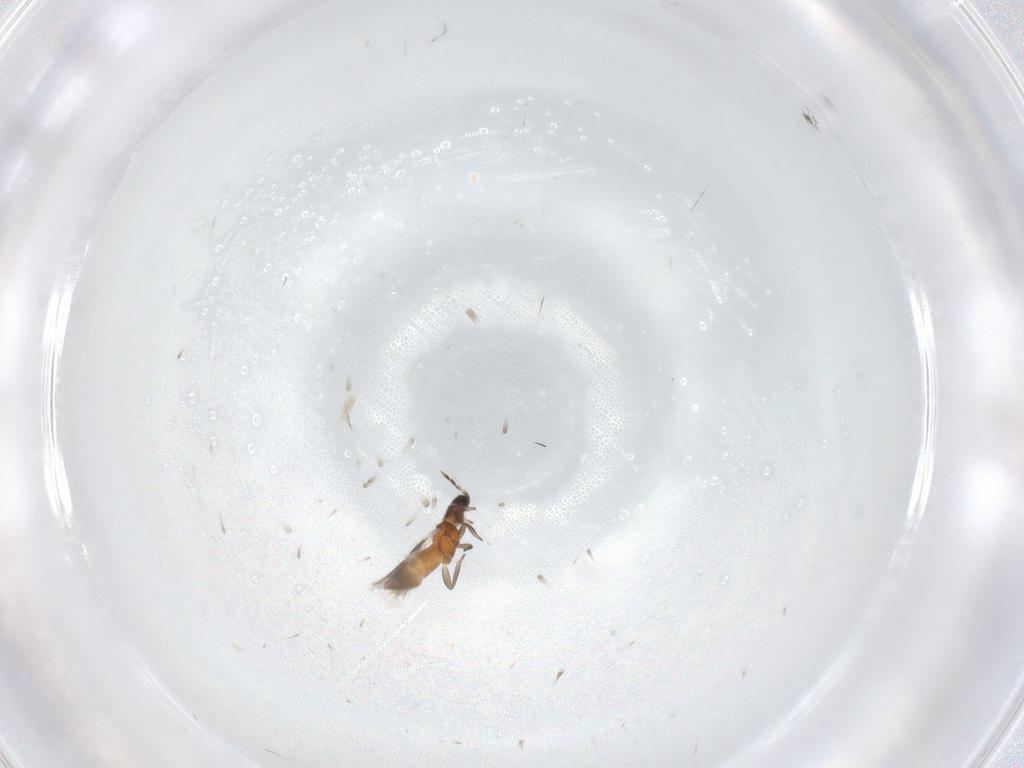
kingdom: Animalia
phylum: Arthropoda
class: Insecta
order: Thysanoptera
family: Aeolothripidae
